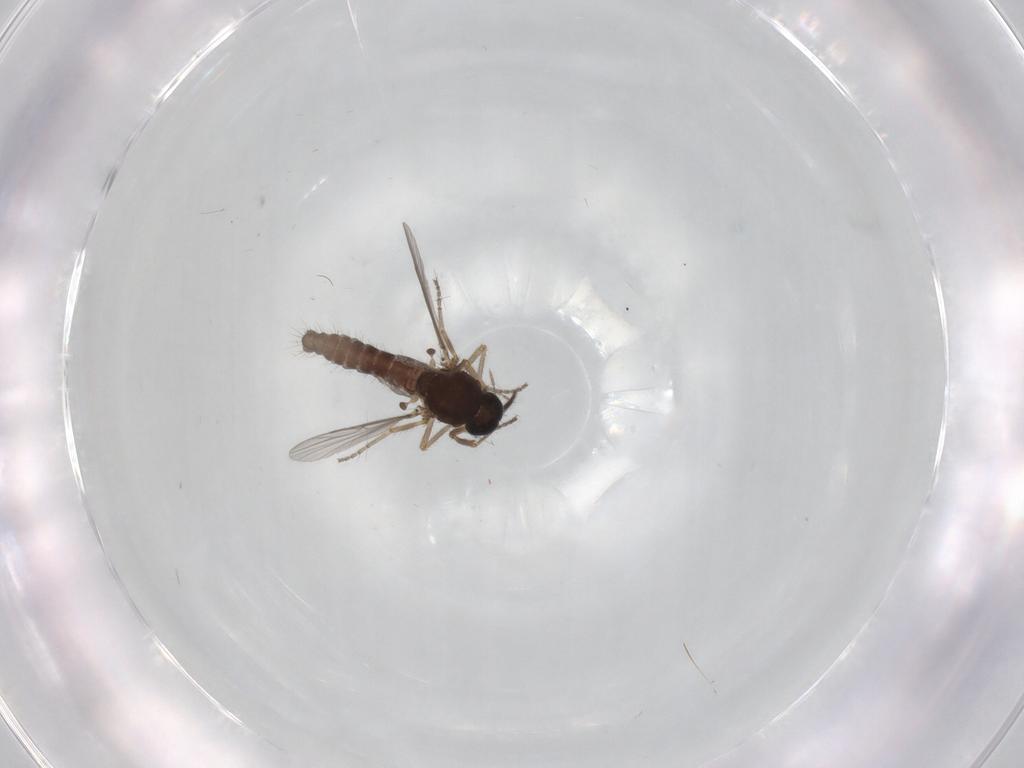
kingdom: Animalia
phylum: Arthropoda
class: Insecta
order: Diptera
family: Ceratopogonidae
